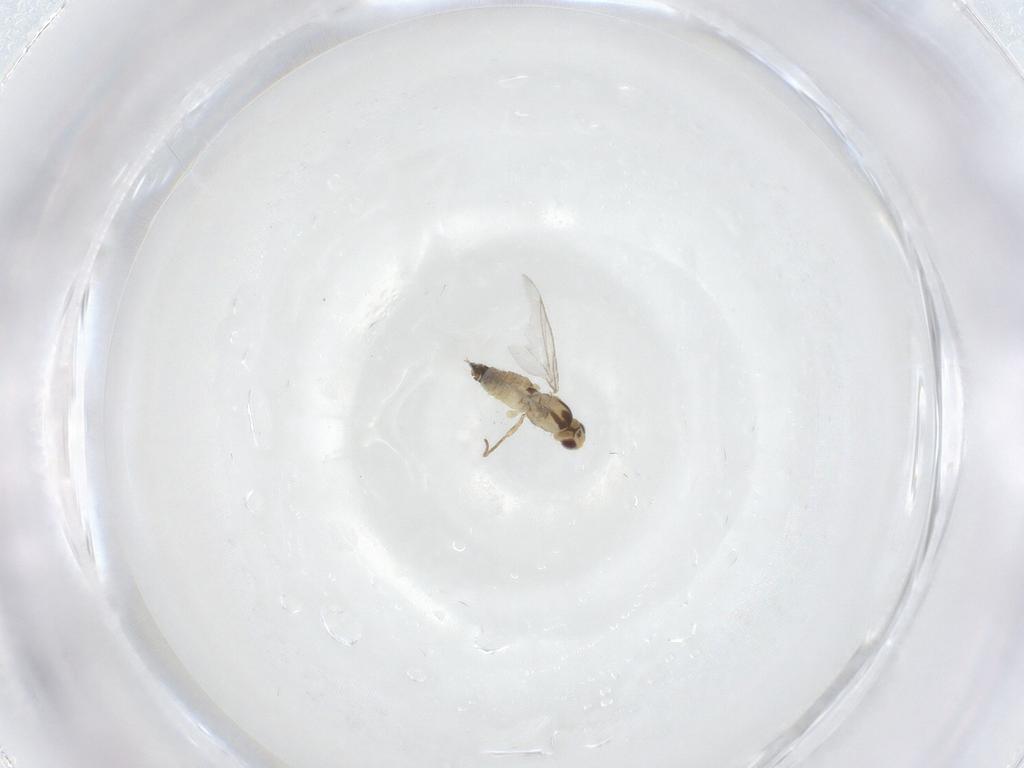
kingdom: Animalia
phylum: Arthropoda
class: Insecta
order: Diptera
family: Agromyzidae
